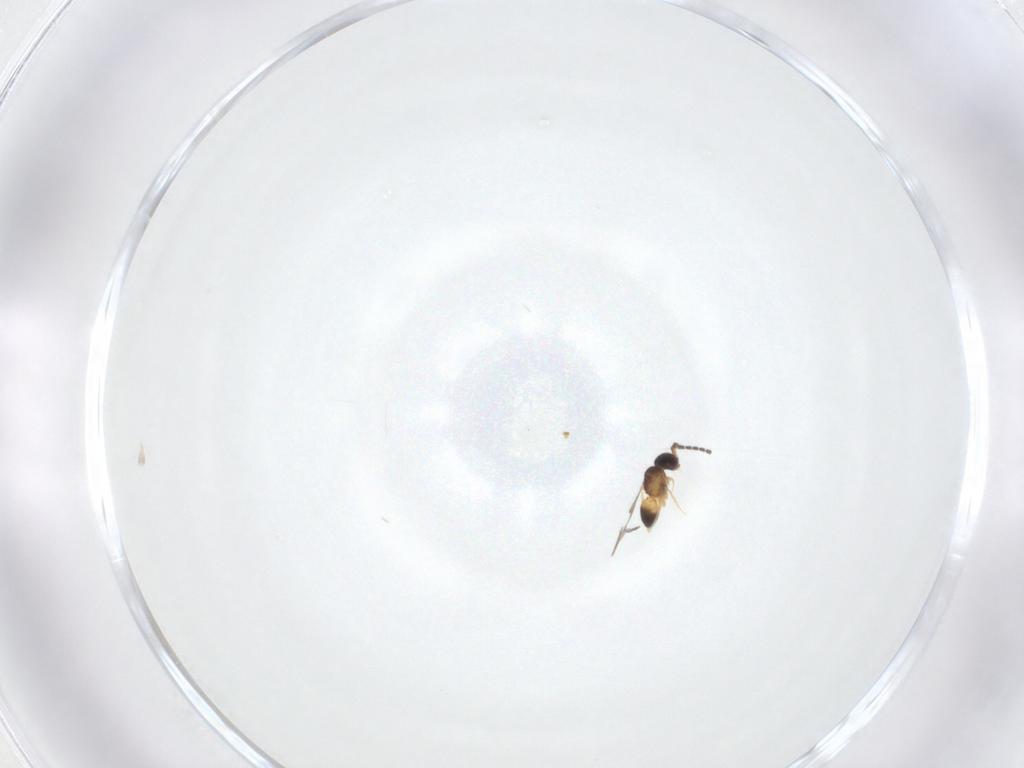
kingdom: Animalia
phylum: Arthropoda
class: Insecta
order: Hymenoptera
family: Ceraphronidae
